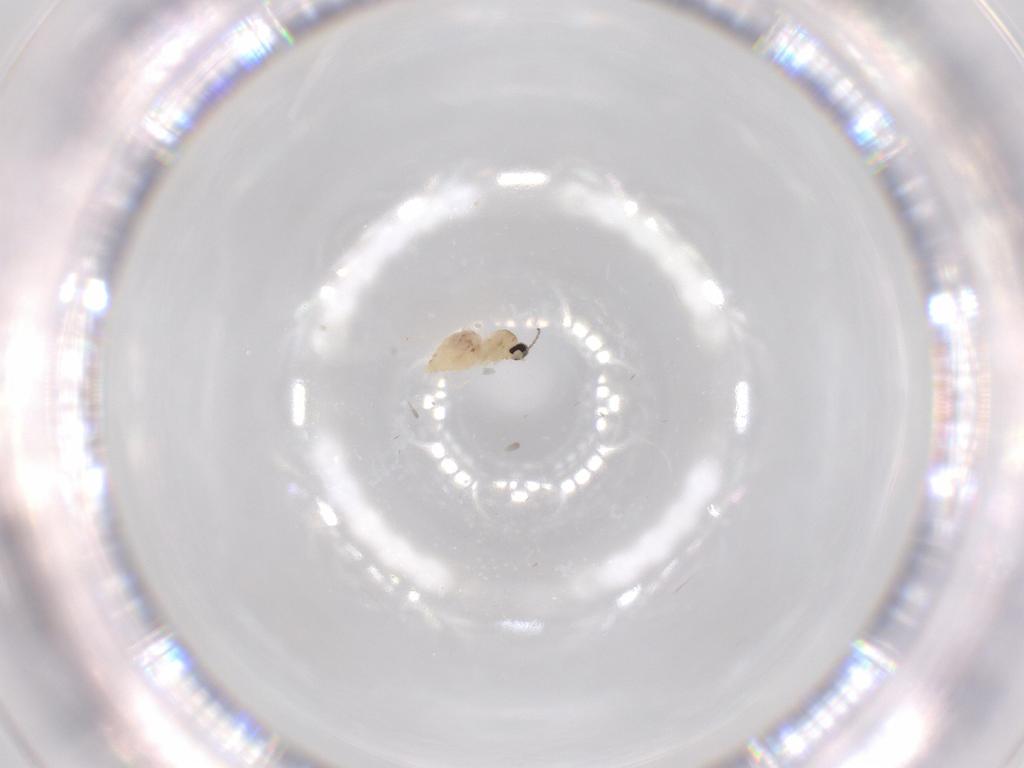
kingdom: Animalia
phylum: Arthropoda
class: Insecta
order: Diptera
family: Cecidomyiidae
